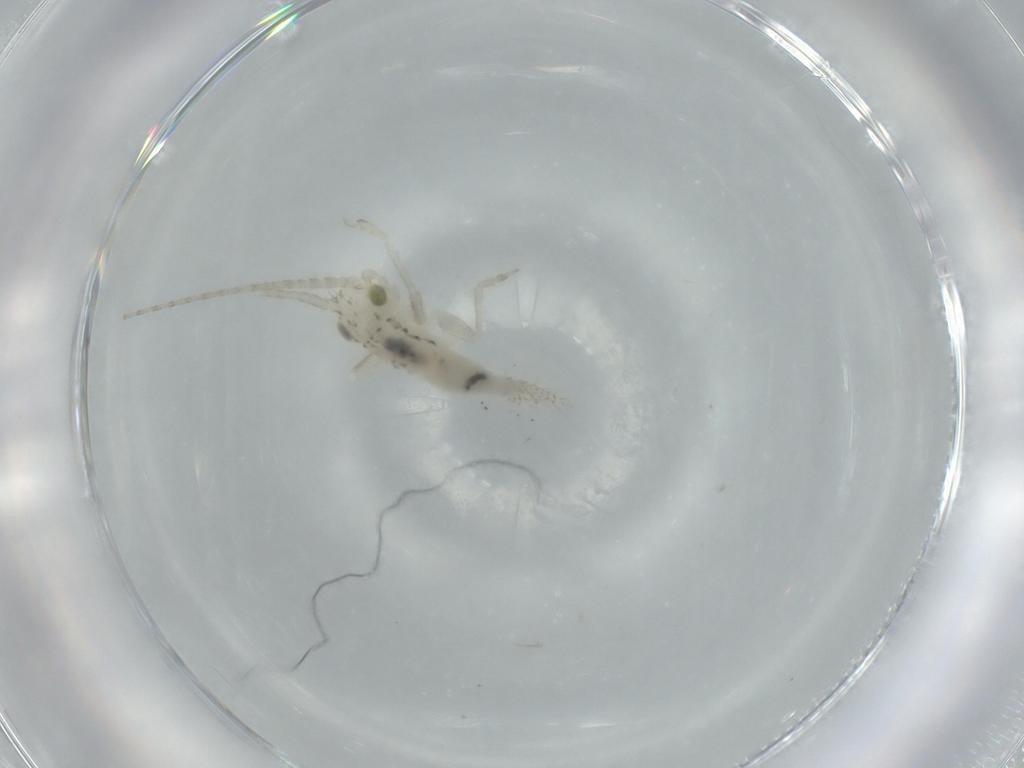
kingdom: Animalia
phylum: Arthropoda
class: Insecta
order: Orthoptera
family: Trigonidiidae
